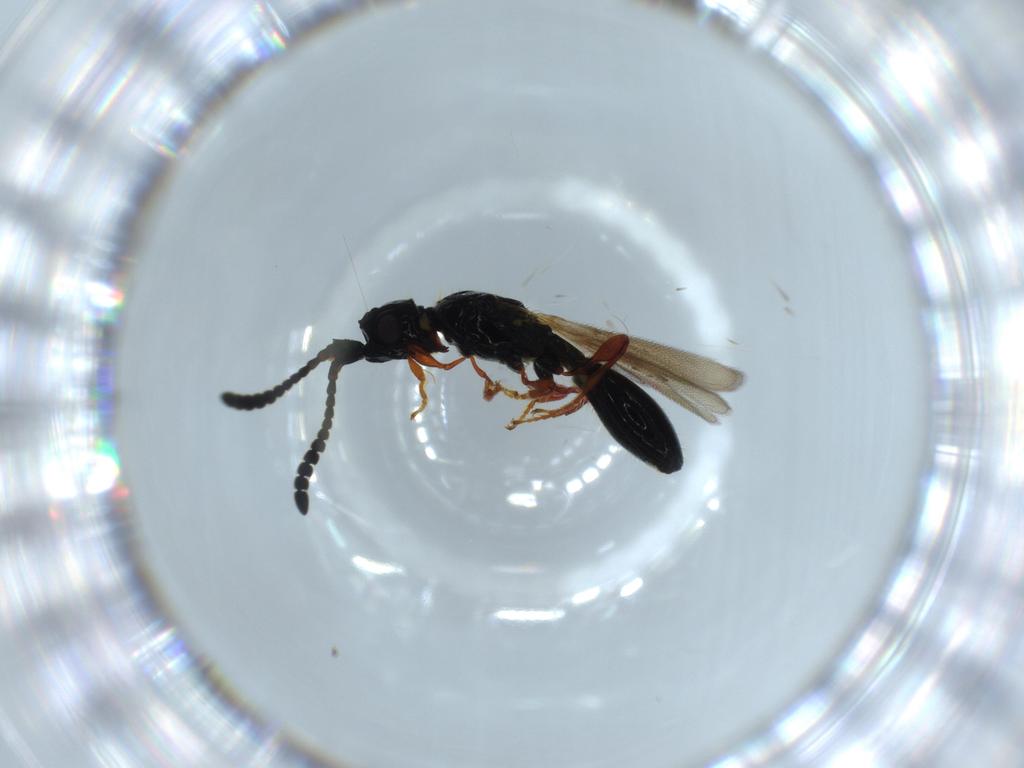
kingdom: Animalia
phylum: Arthropoda
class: Insecta
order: Hymenoptera
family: Diapriidae
